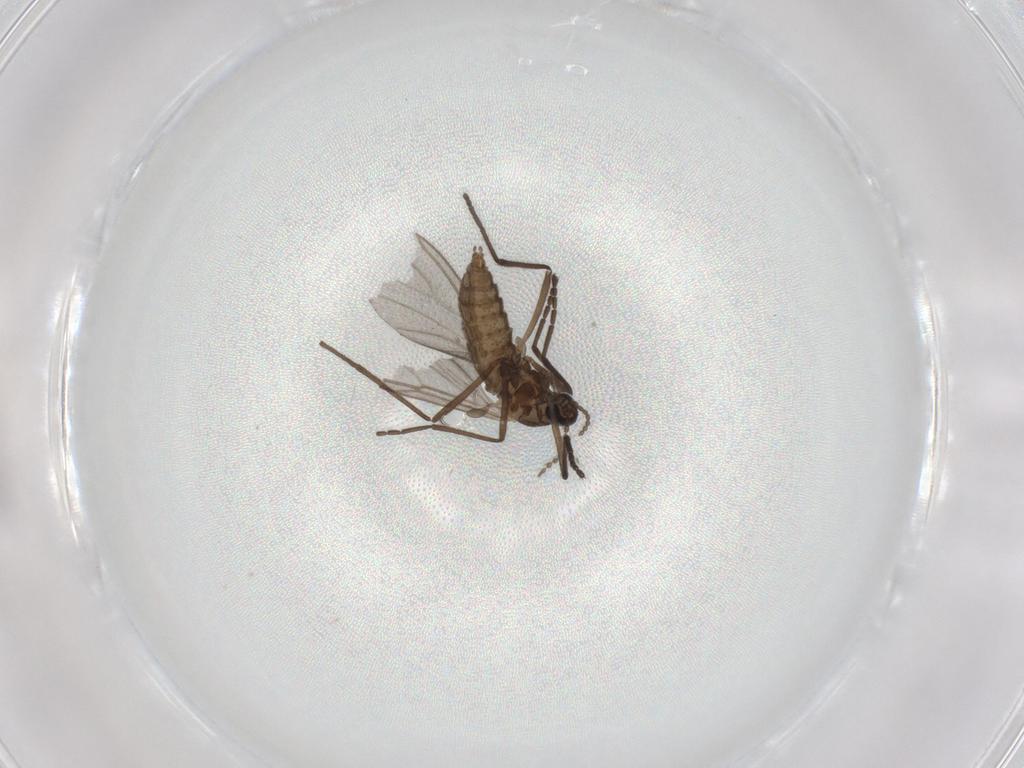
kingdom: Animalia
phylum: Arthropoda
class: Insecta
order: Diptera
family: Cecidomyiidae
